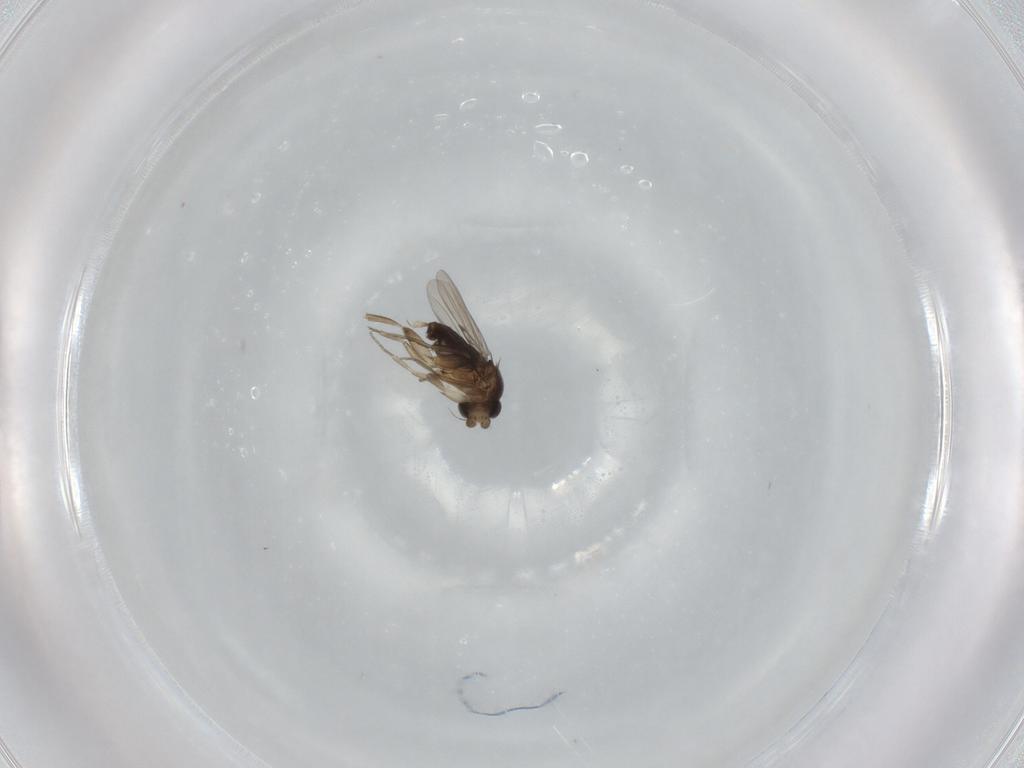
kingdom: Animalia
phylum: Arthropoda
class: Insecta
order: Diptera
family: Phoridae
